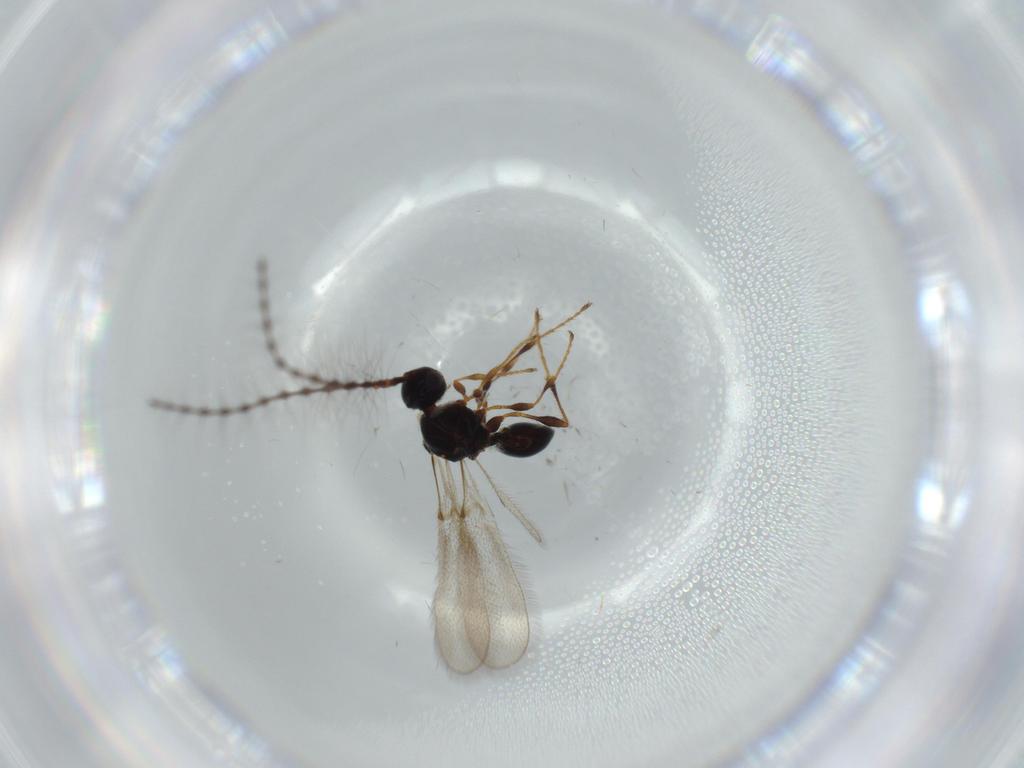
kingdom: Animalia
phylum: Arthropoda
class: Insecta
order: Hymenoptera
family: Diapriidae
